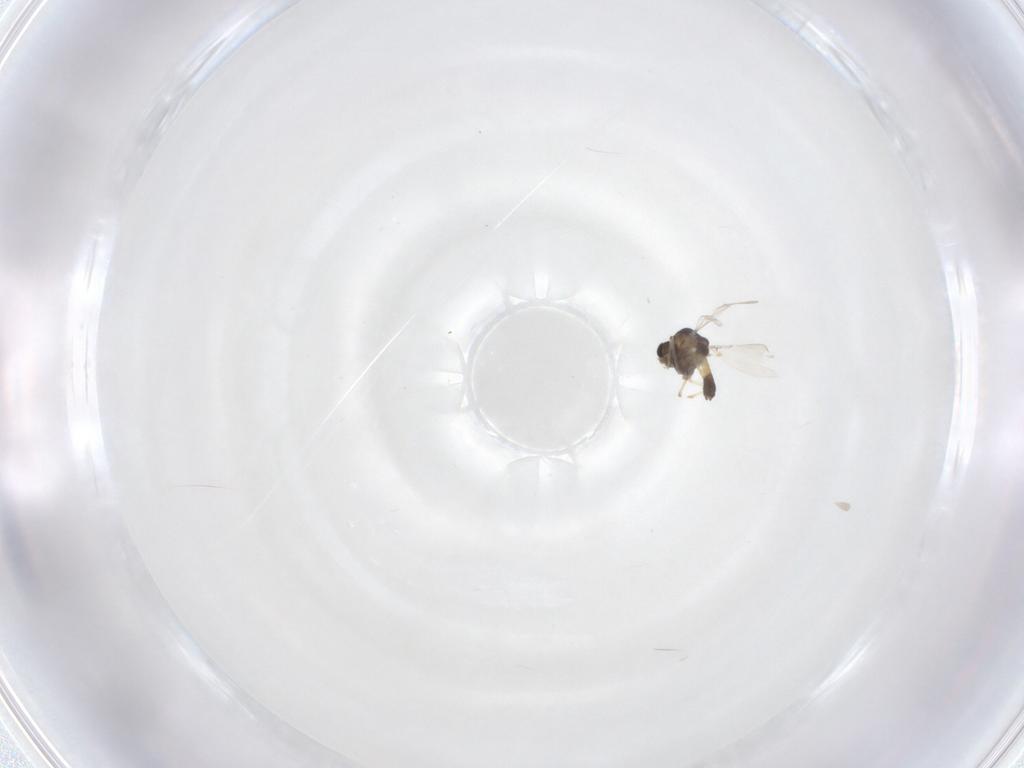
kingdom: Animalia
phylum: Arthropoda
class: Insecta
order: Diptera
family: Chironomidae
